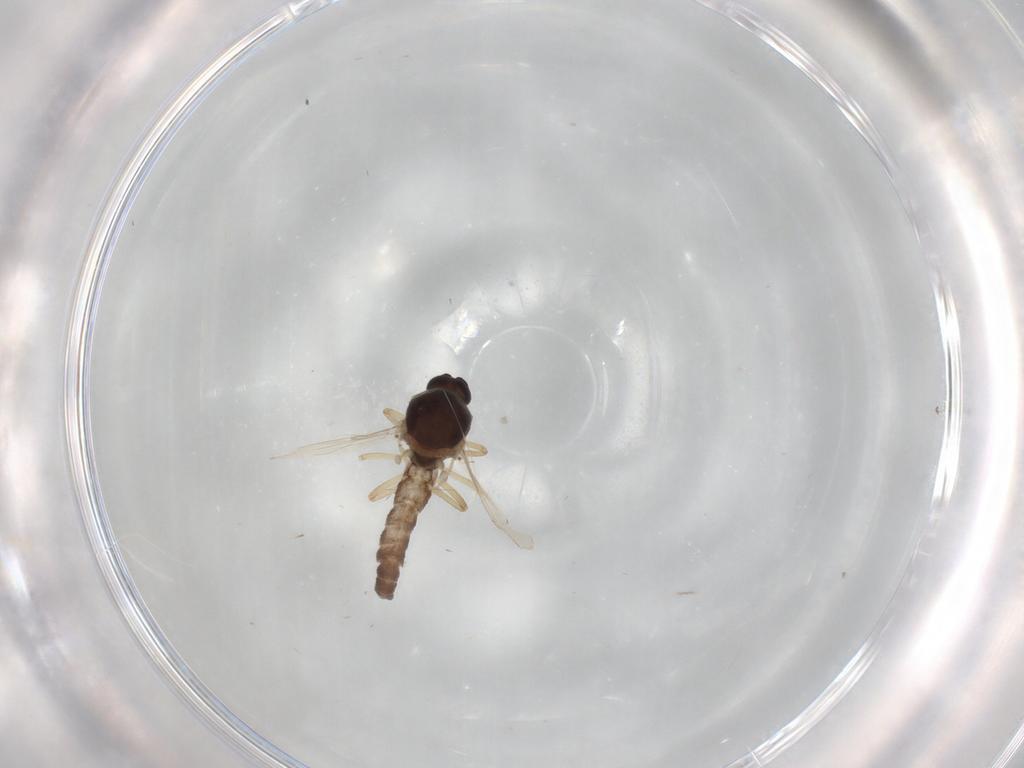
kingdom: Animalia
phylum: Arthropoda
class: Insecta
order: Diptera
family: Ceratopogonidae
